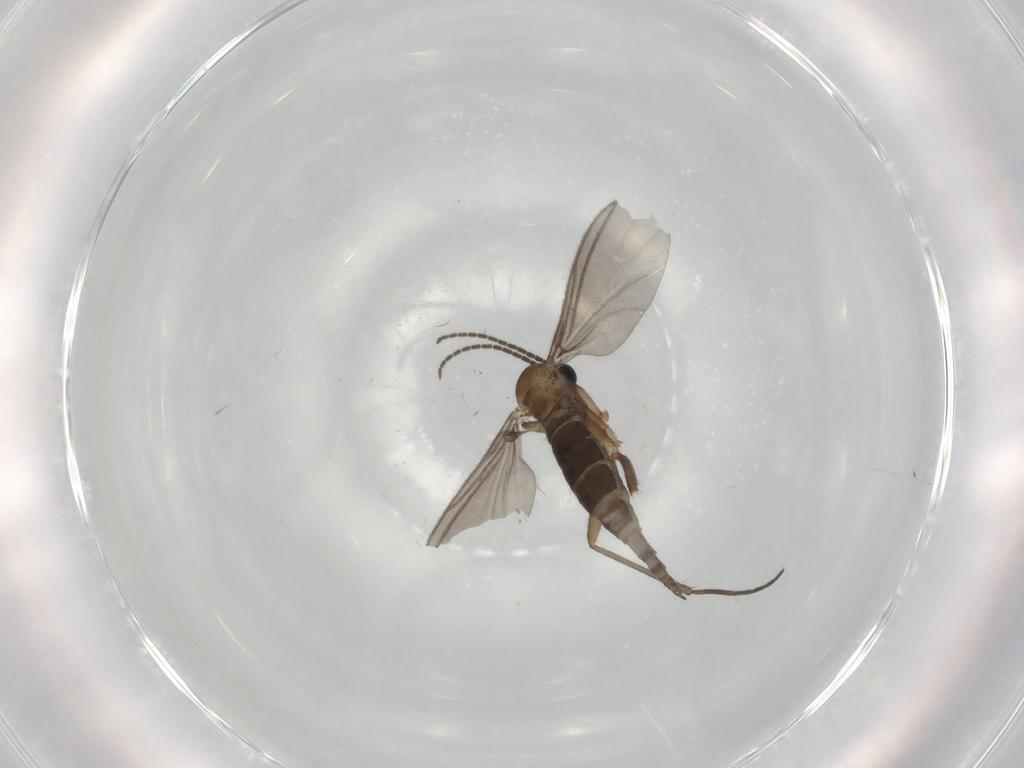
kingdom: Animalia
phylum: Arthropoda
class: Insecta
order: Diptera
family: Sciaridae
